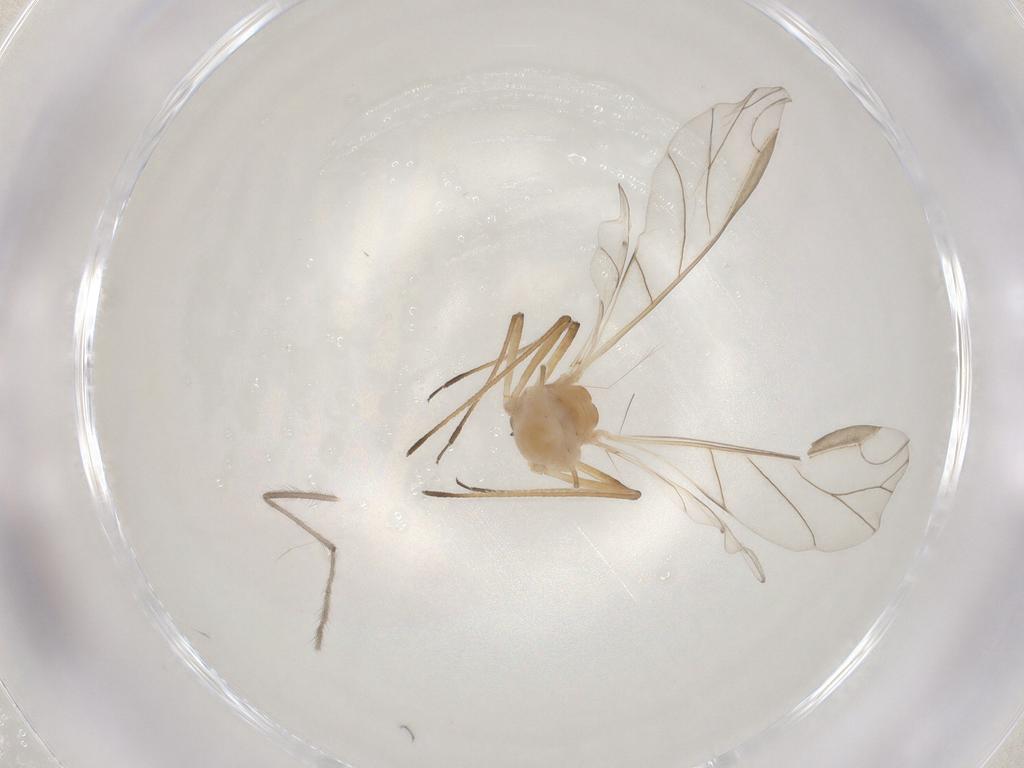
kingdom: Animalia
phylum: Arthropoda
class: Insecta
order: Hemiptera
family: Aphididae
